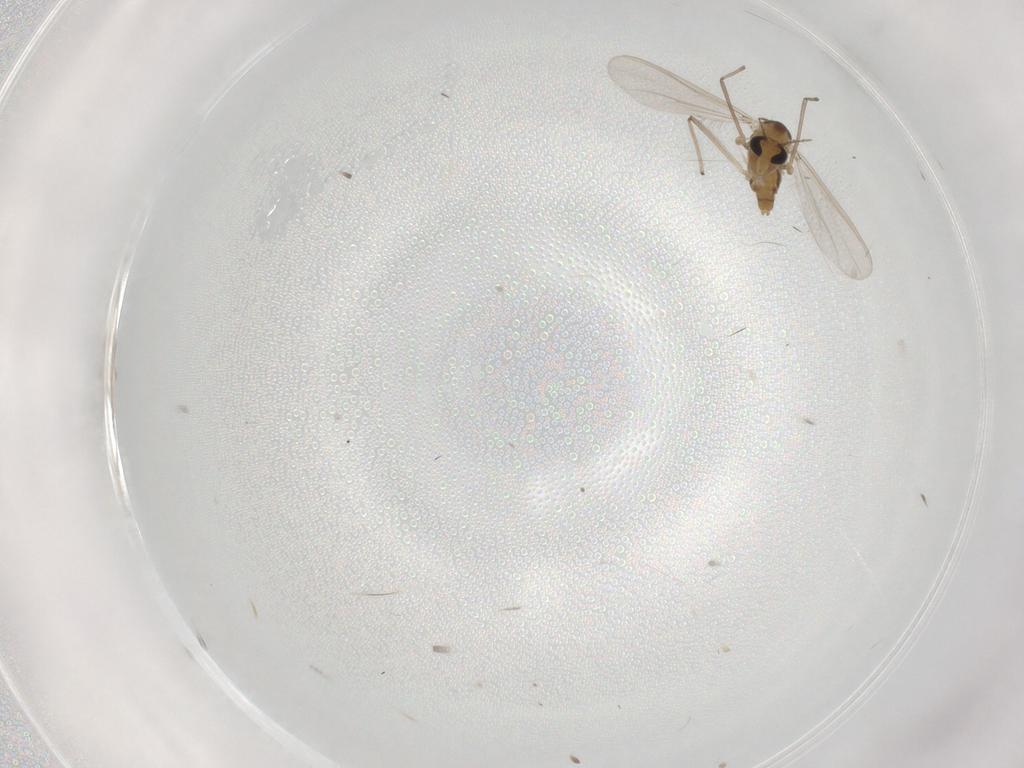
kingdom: Animalia
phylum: Arthropoda
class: Insecta
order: Diptera
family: Chironomidae
